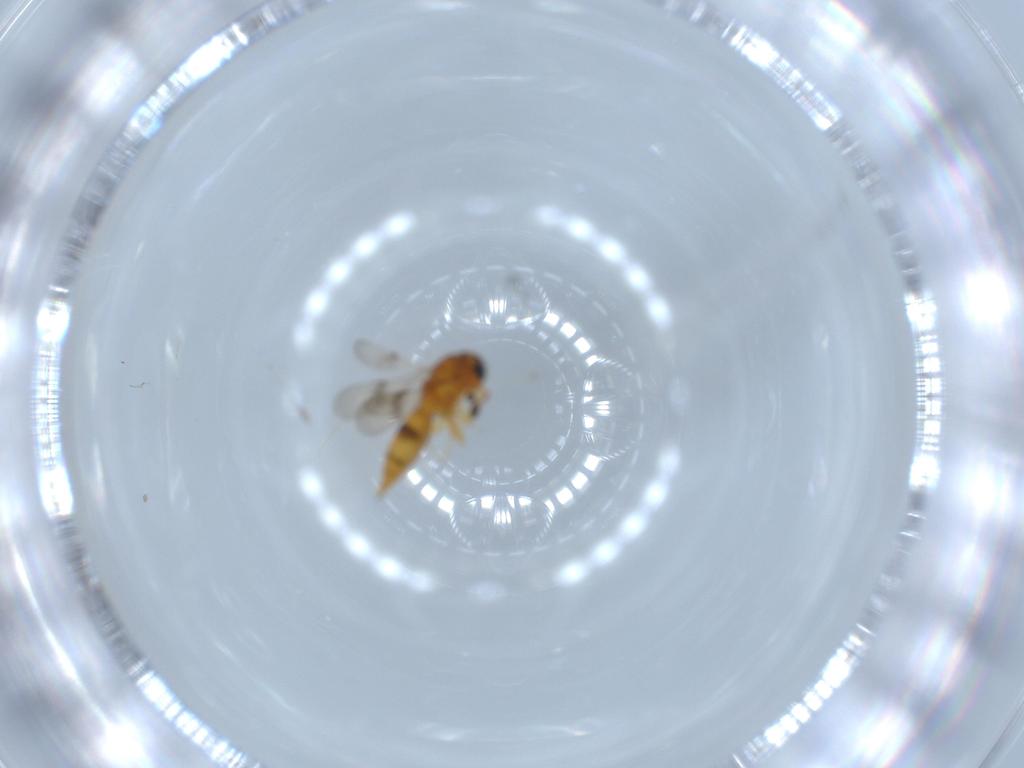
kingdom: Animalia
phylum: Arthropoda
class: Insecta
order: Hymenoptera
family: Scelionidae
